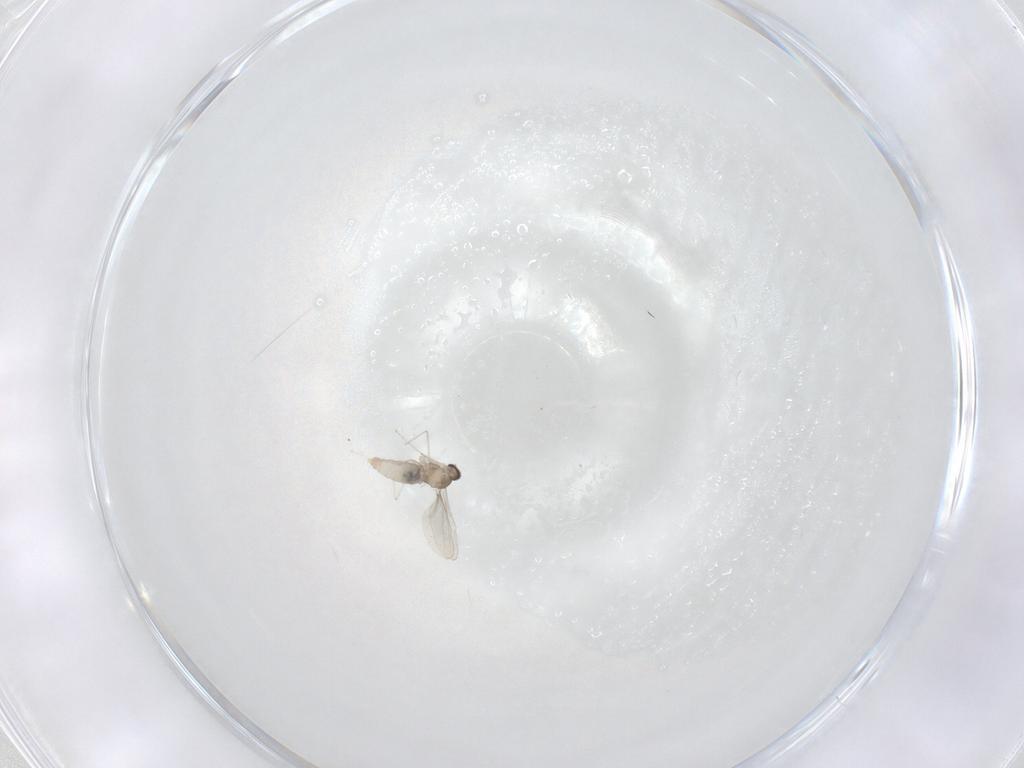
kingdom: Animalia
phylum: Arthropoda
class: Insecta
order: Diptera
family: Cecidomyiidae
